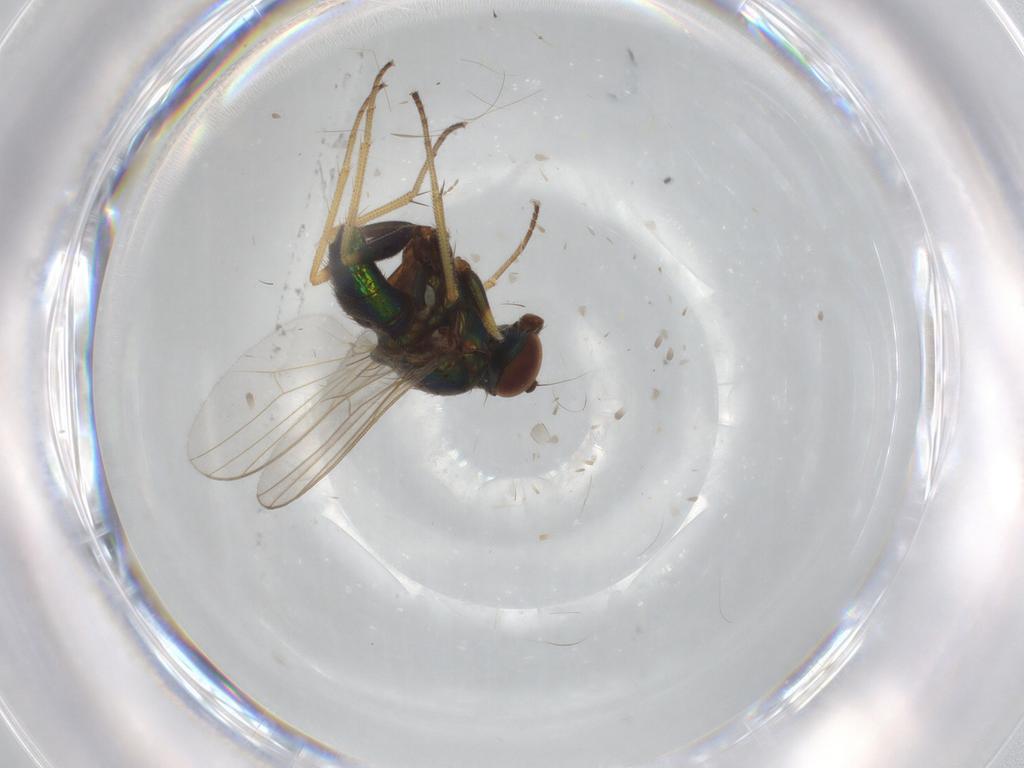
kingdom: Animalia
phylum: Arthropoda
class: Insecta
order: Diptera
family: Dolichopodidae
